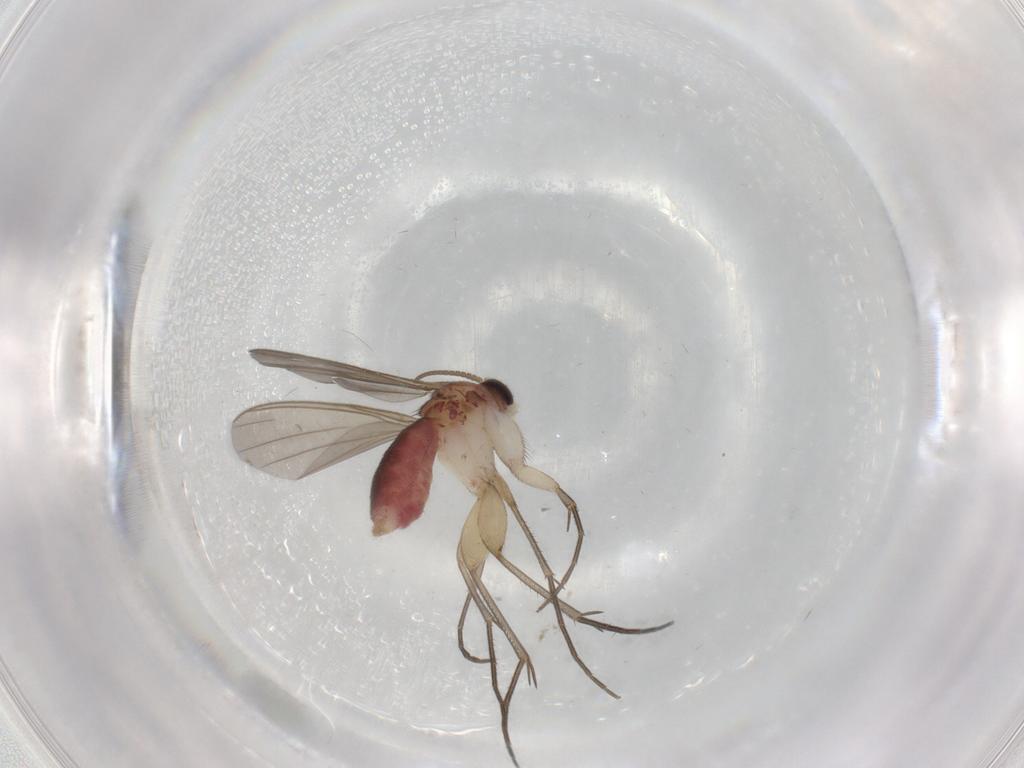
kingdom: Animalia
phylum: Arthropoda
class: Insecta
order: Diptera
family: Mycetophilidae
